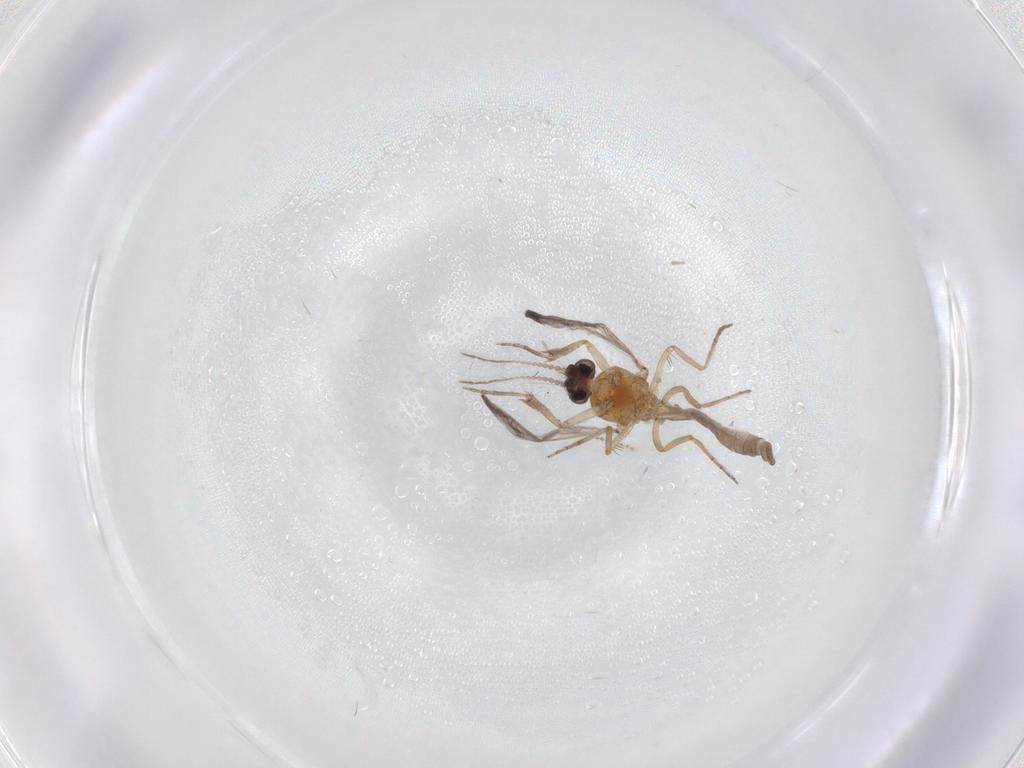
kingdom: Animalia
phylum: Arthropoda
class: Insecta
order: Diptera
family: Ceratopogonidae
